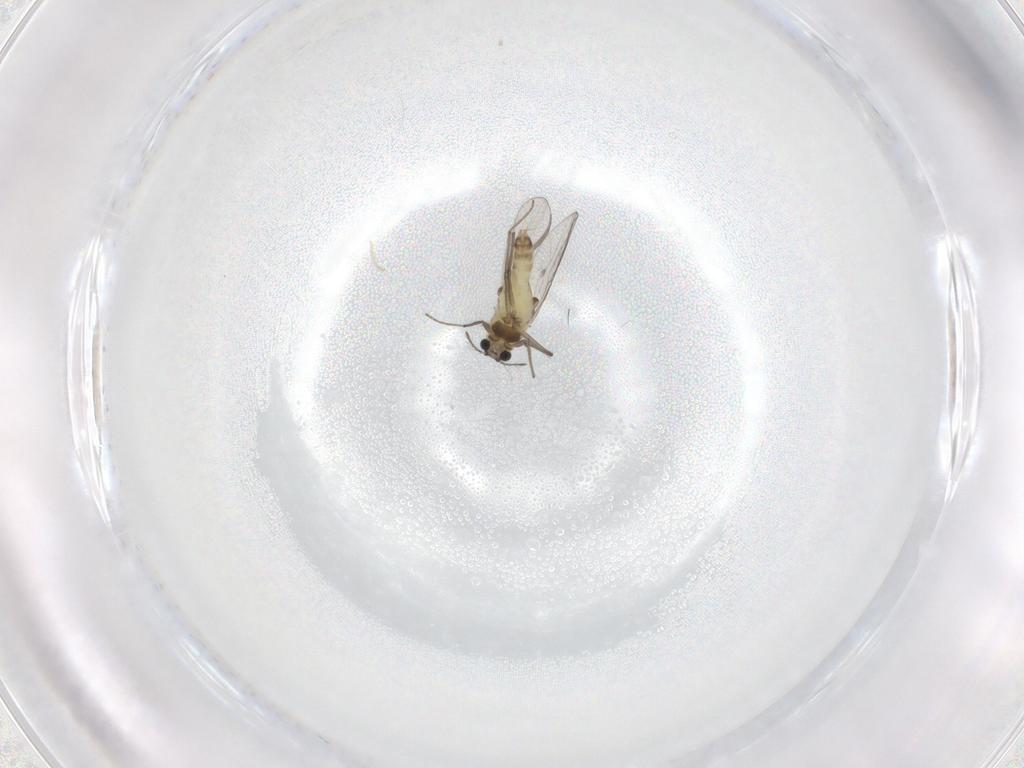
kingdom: Animalia
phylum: Arthropoda
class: Insecta
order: Diptera
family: Chironomidae
